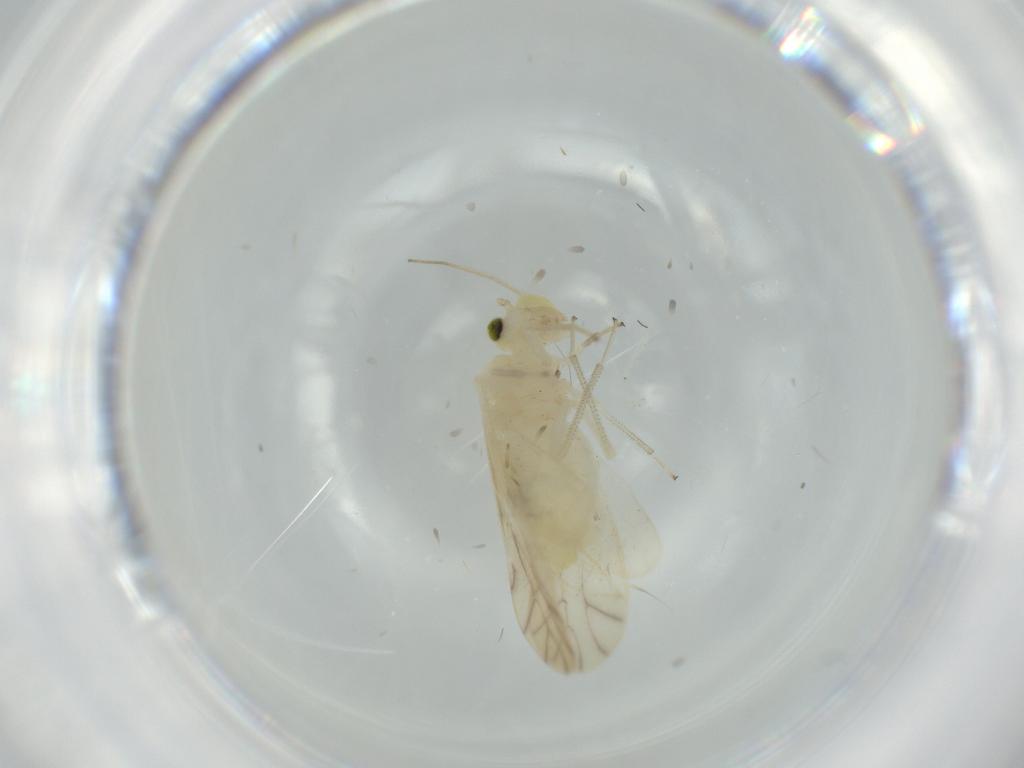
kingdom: Animalia
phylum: Arthropoda
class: Insecta
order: Psocodea
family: Caeciliusidae
